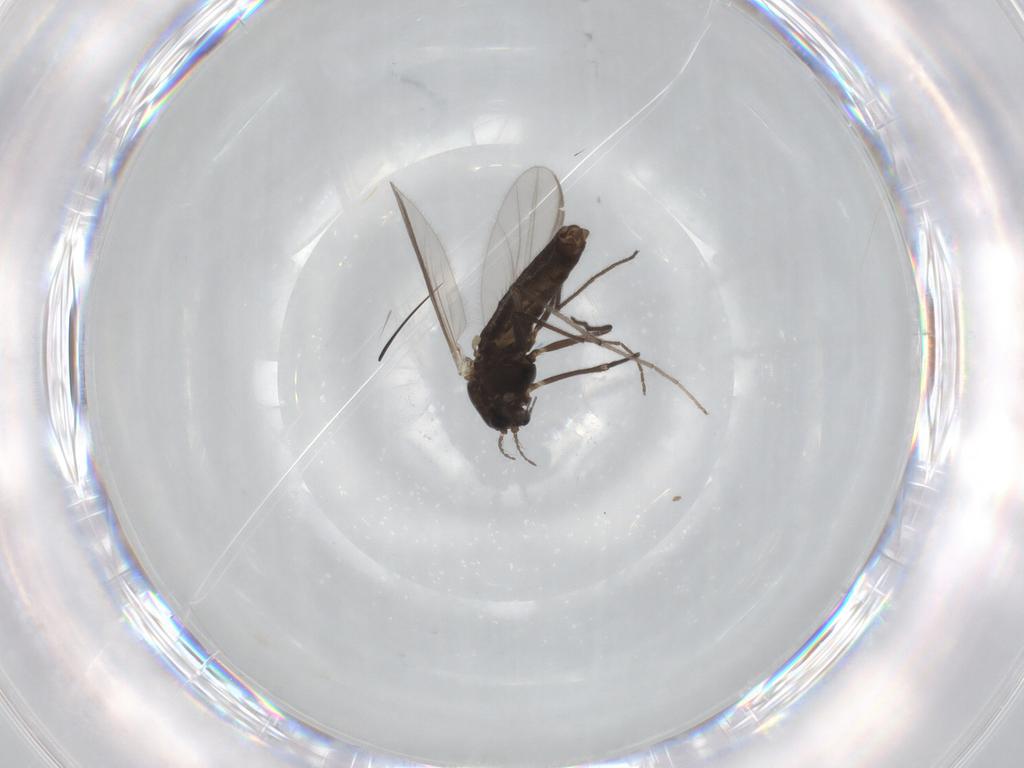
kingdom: Animalia
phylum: Arthropoda
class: Insecta
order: Diptera
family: Chironomidae
